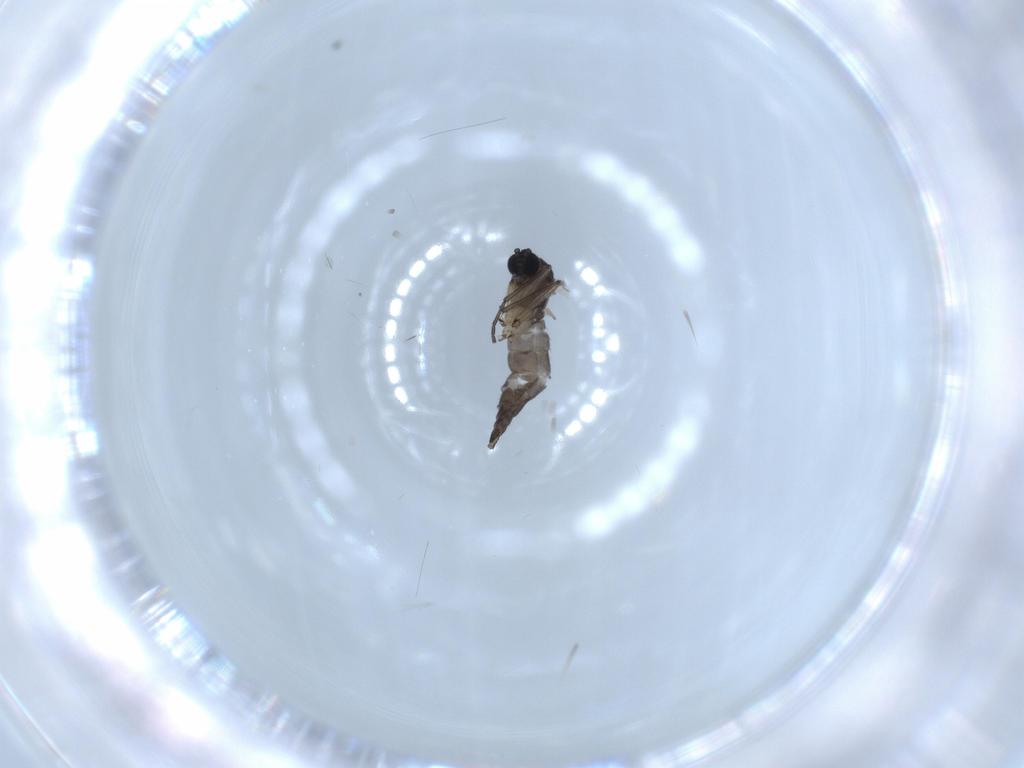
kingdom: Animalia
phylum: Arthropoda
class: Insecta
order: Diptera
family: Sciaridae
